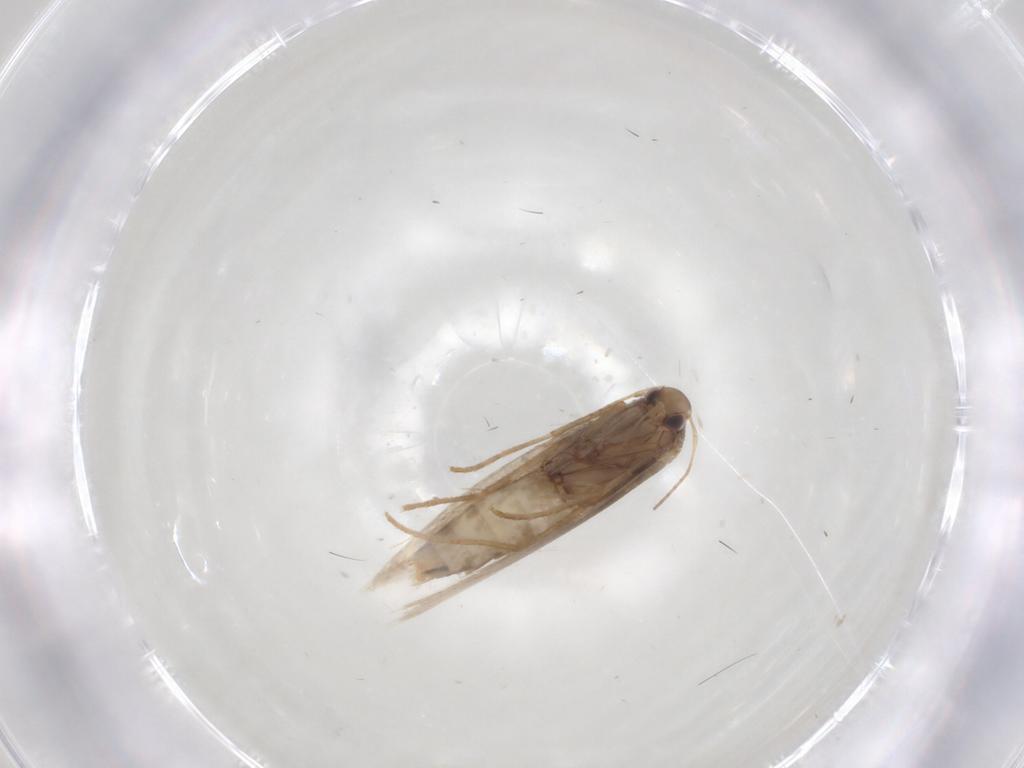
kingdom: Animalia
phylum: Arthropoda
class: Insecta
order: Lepidoptera
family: Gracillariidae
